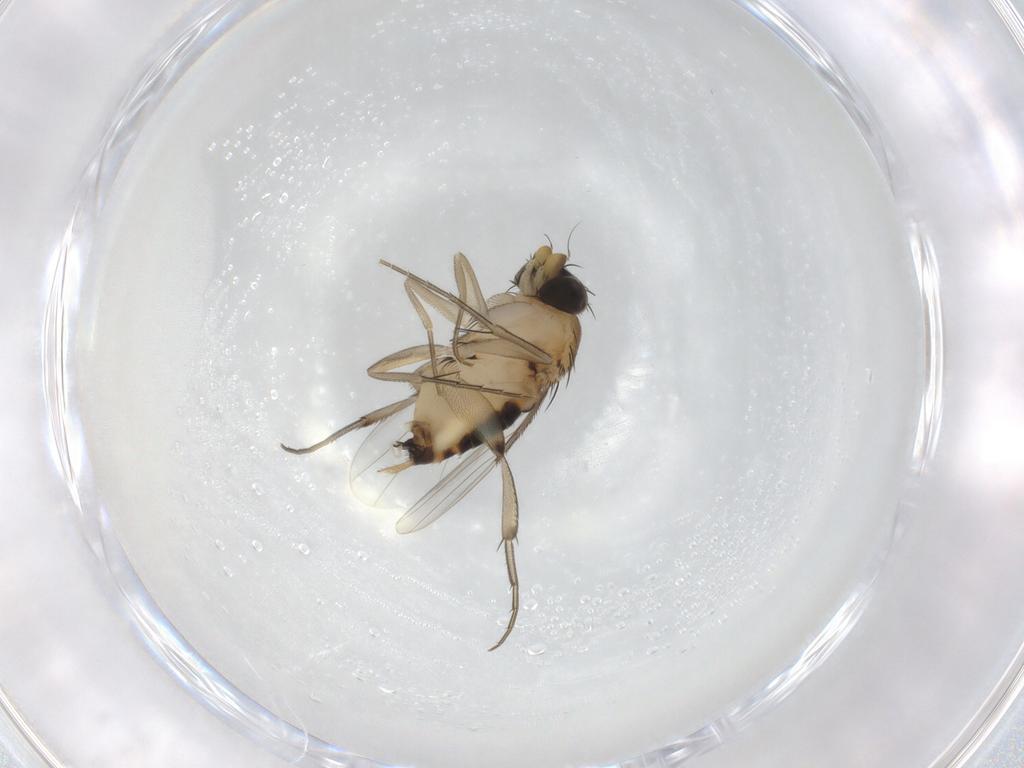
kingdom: Animalia
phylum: Arthropoda
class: Insecta
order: Diptera
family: Phoridae
